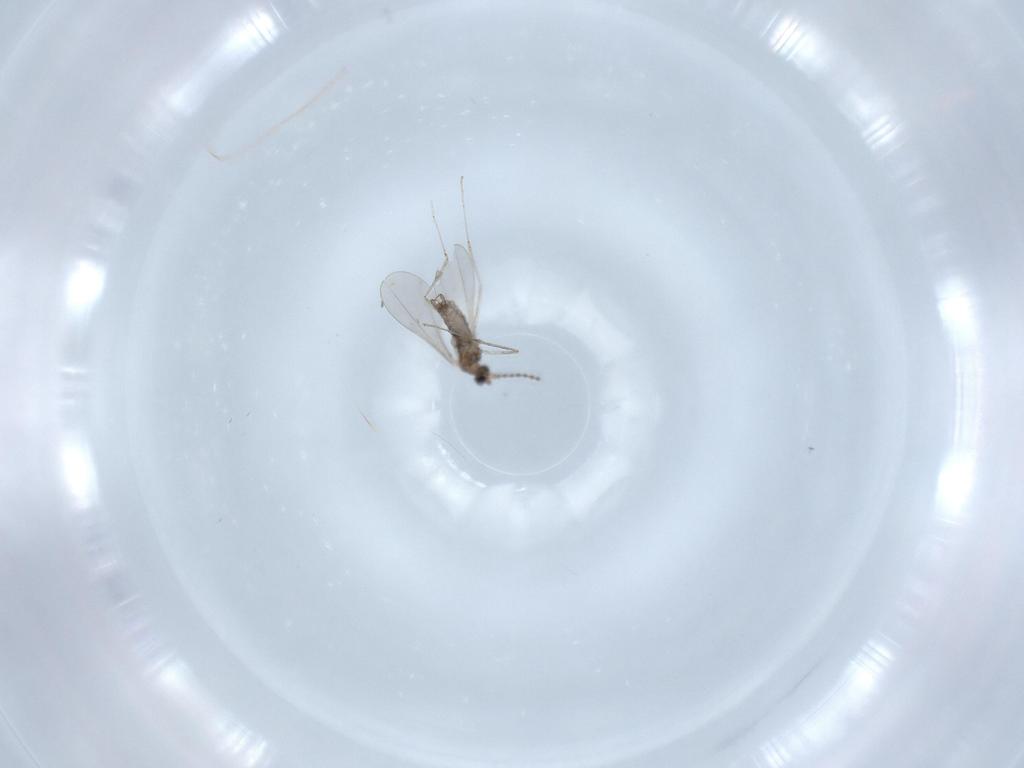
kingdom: Animalia
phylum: Arthropoda
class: Insecta
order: Diptera
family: Cecidomyiidae
